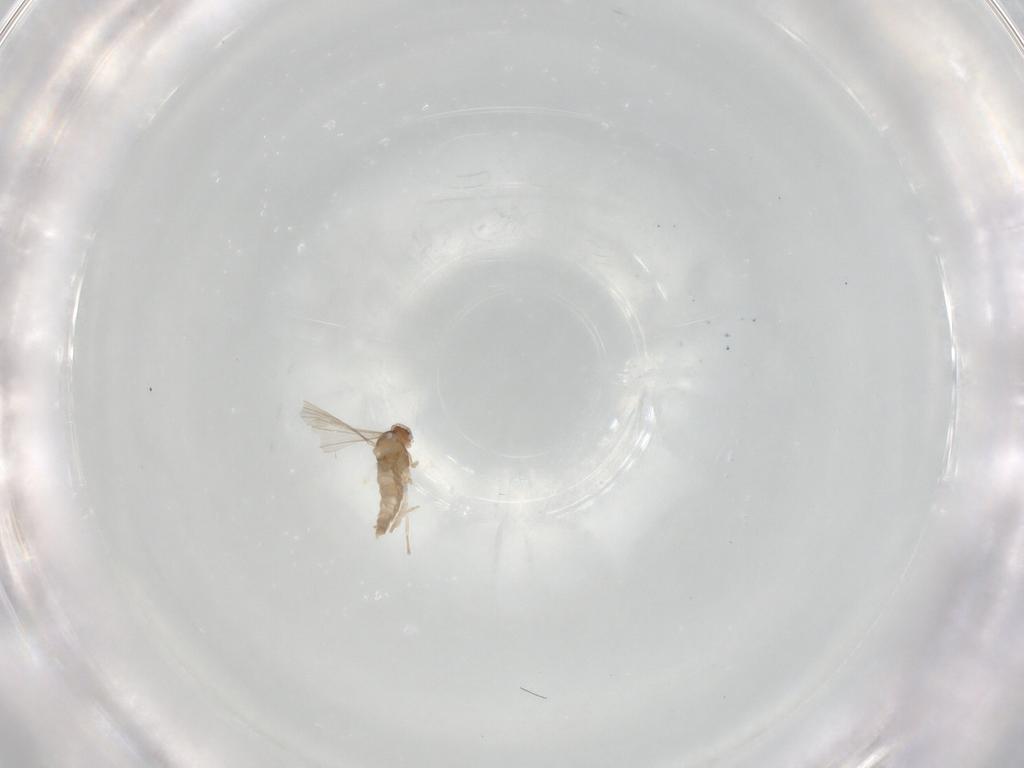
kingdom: Animalia
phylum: Arthropoda
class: Insecta
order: Diptera
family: Cecidomyiidae
